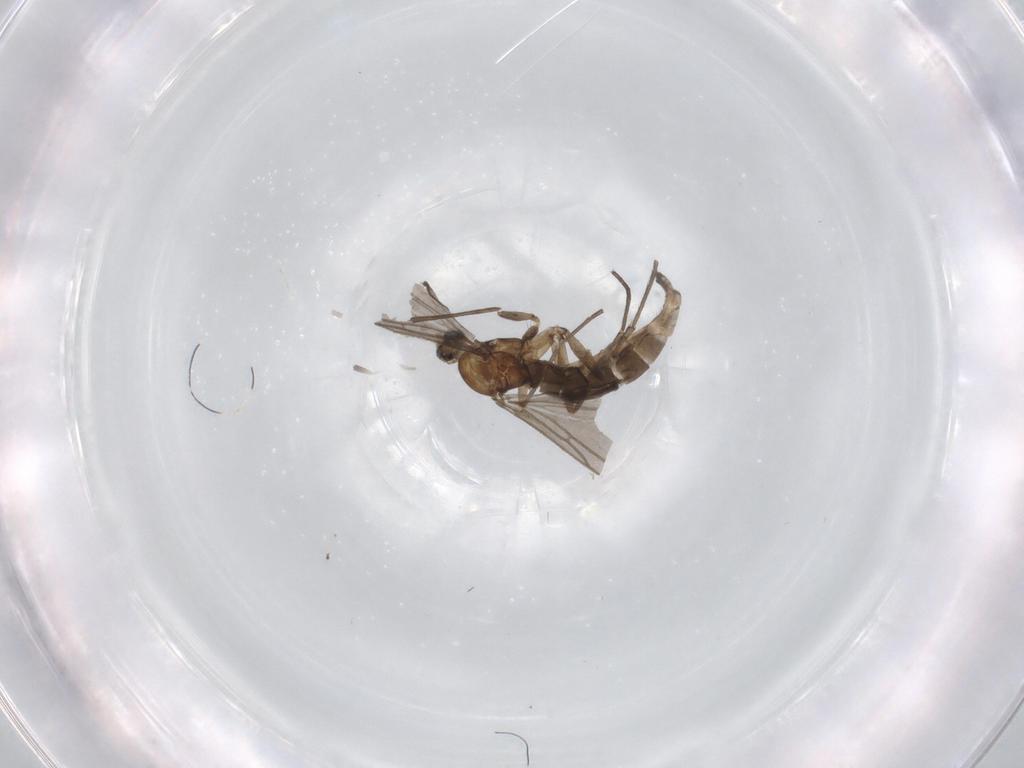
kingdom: Animalia
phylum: Arthropoda
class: Insecta
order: Diptera
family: Sciaridae
